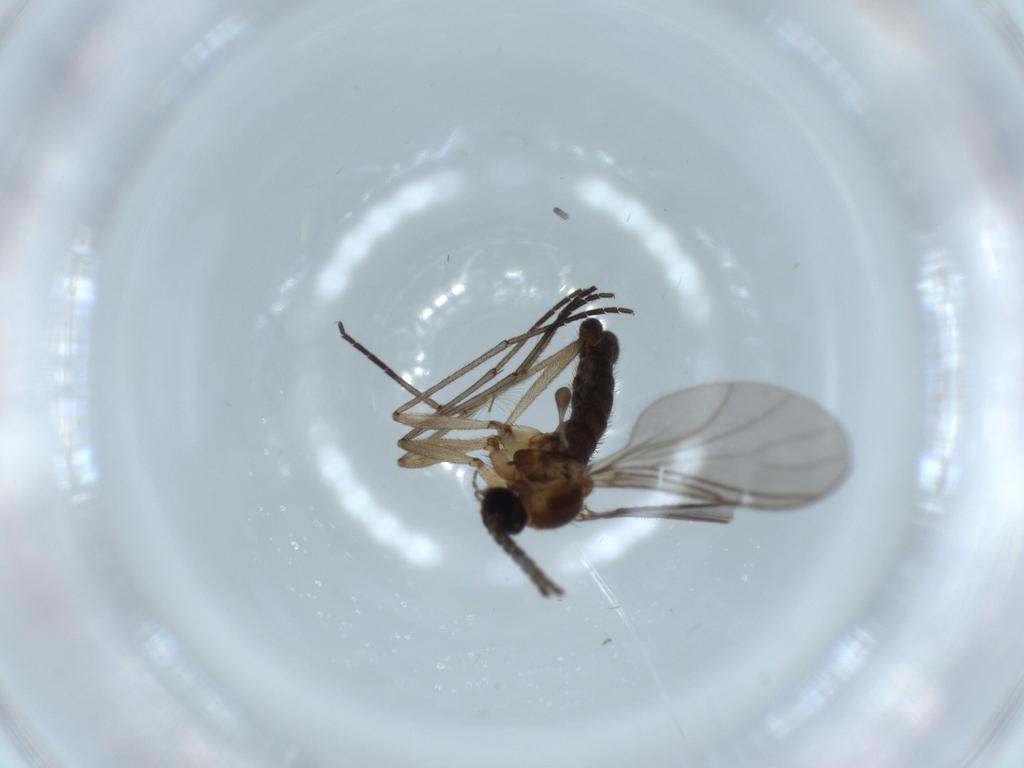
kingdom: Animalia
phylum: Arthropoda
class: Insecta
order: Diptera
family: Sciaridae
